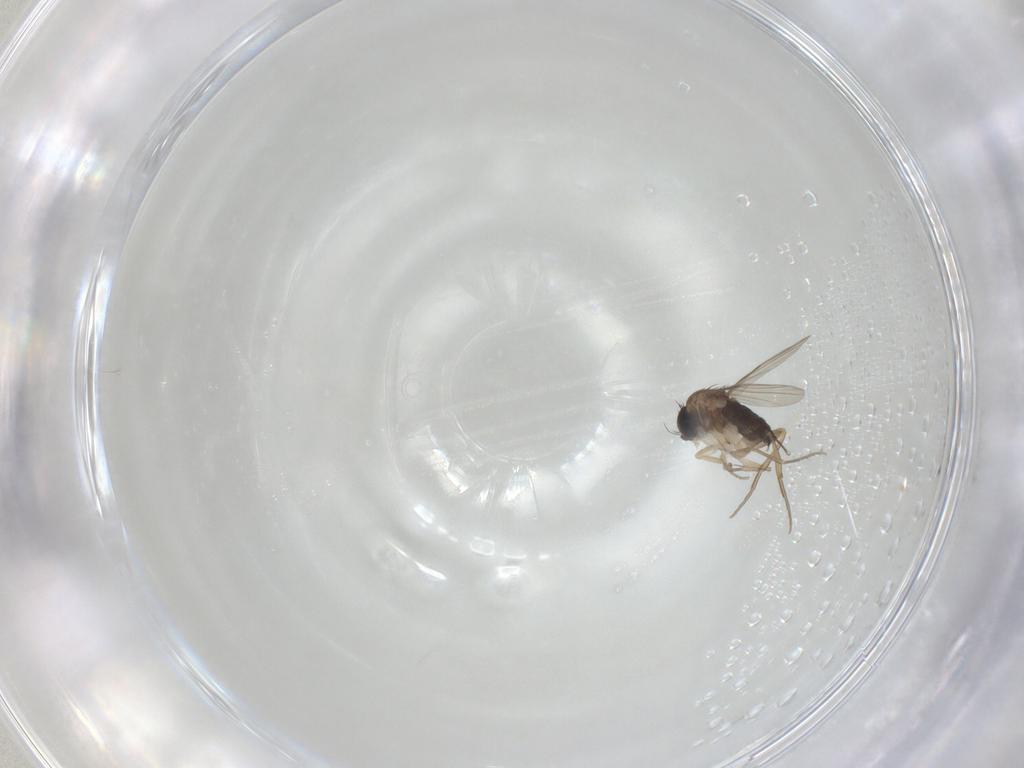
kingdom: Animalia
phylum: Arthropoda
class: Insecta
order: Diptera
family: Phoridae
